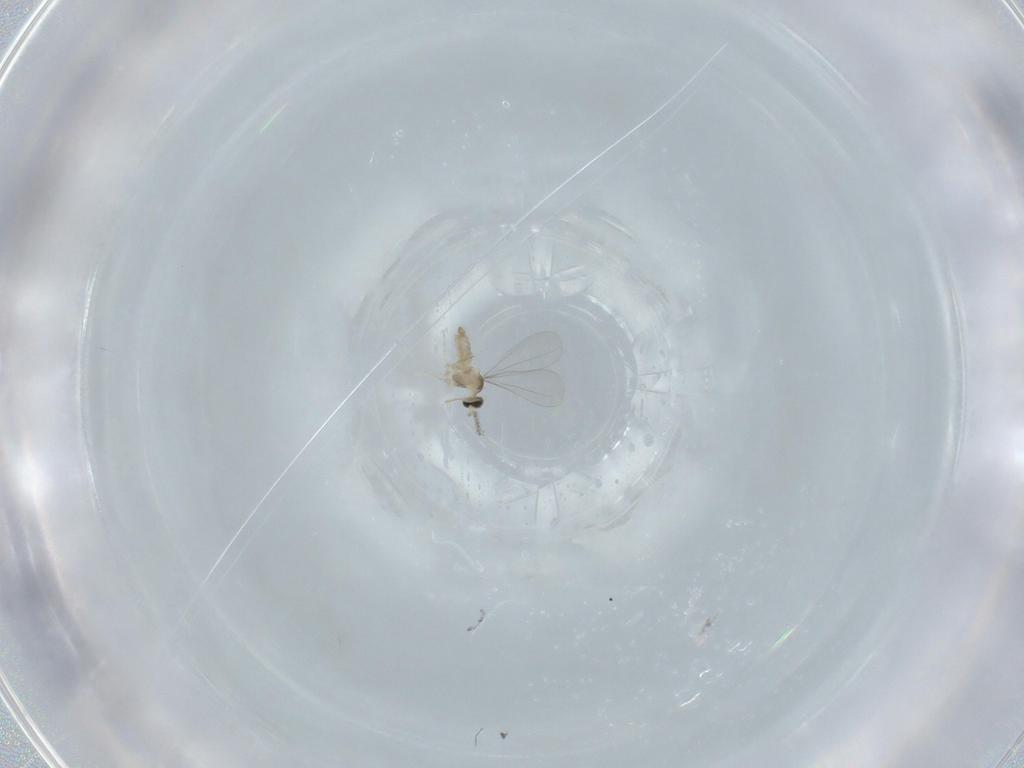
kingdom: Animalia
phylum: Arthropoda
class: Insecta
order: Diptera
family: Cecidomyiidae
